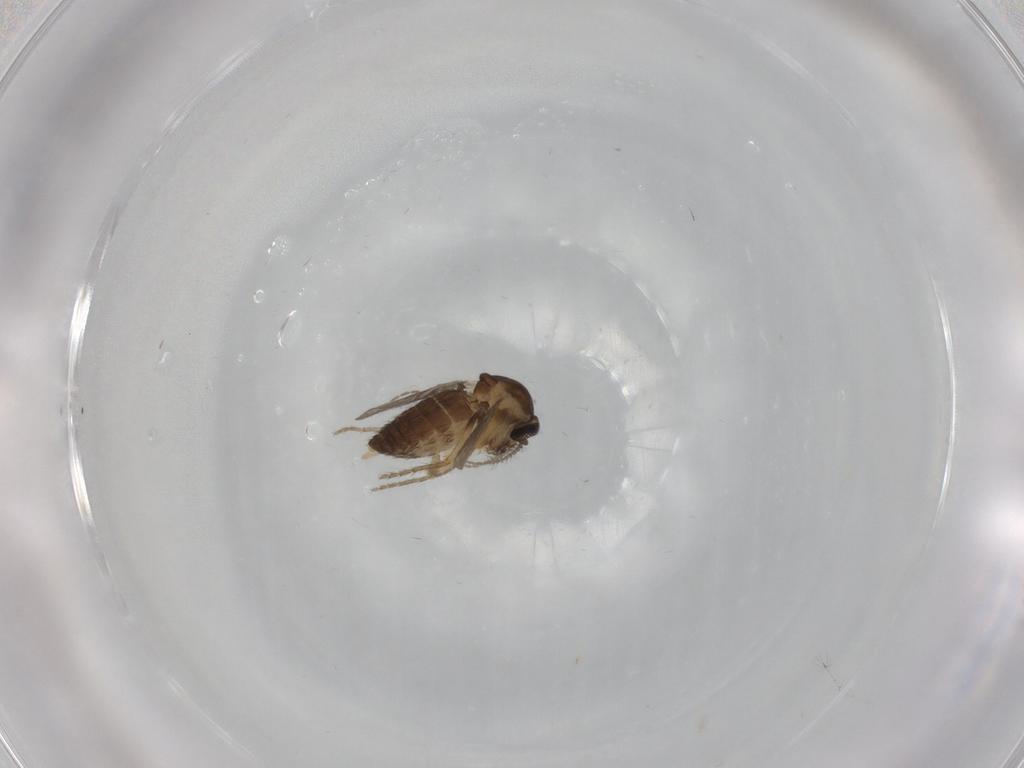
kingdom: Animalia
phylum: Arthropoda
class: Insecta
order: Diptera
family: Ceratopogonidae
